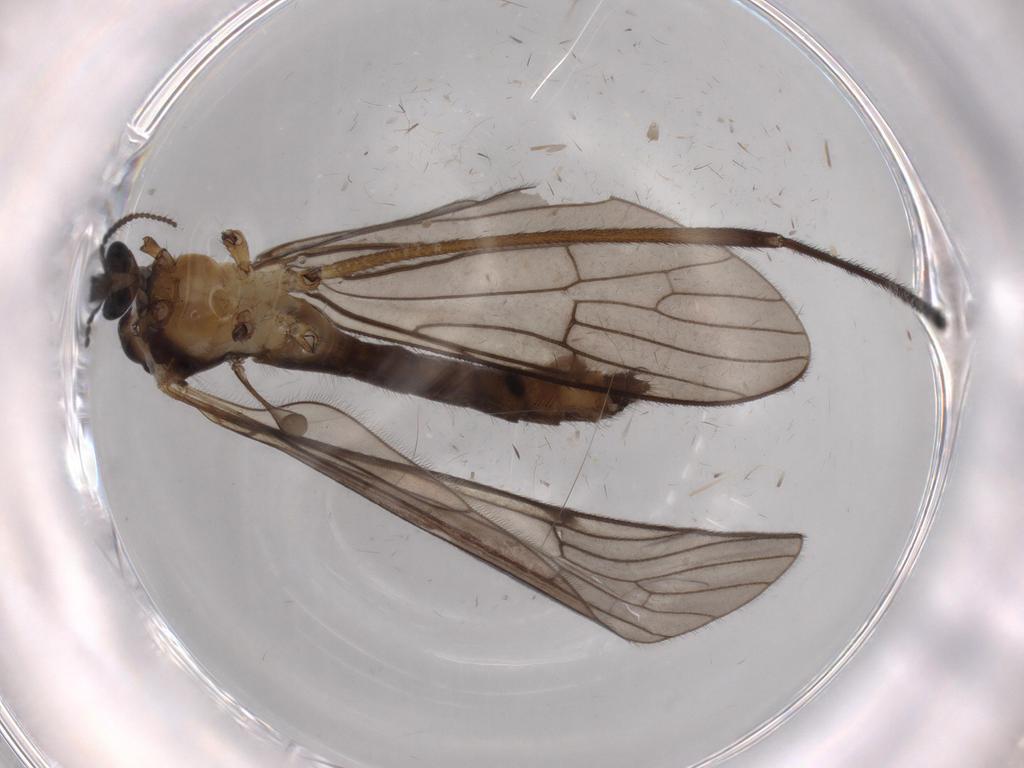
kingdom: Animalia
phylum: Arthropoda
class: Insecta
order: Diptera
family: Limoniidae
